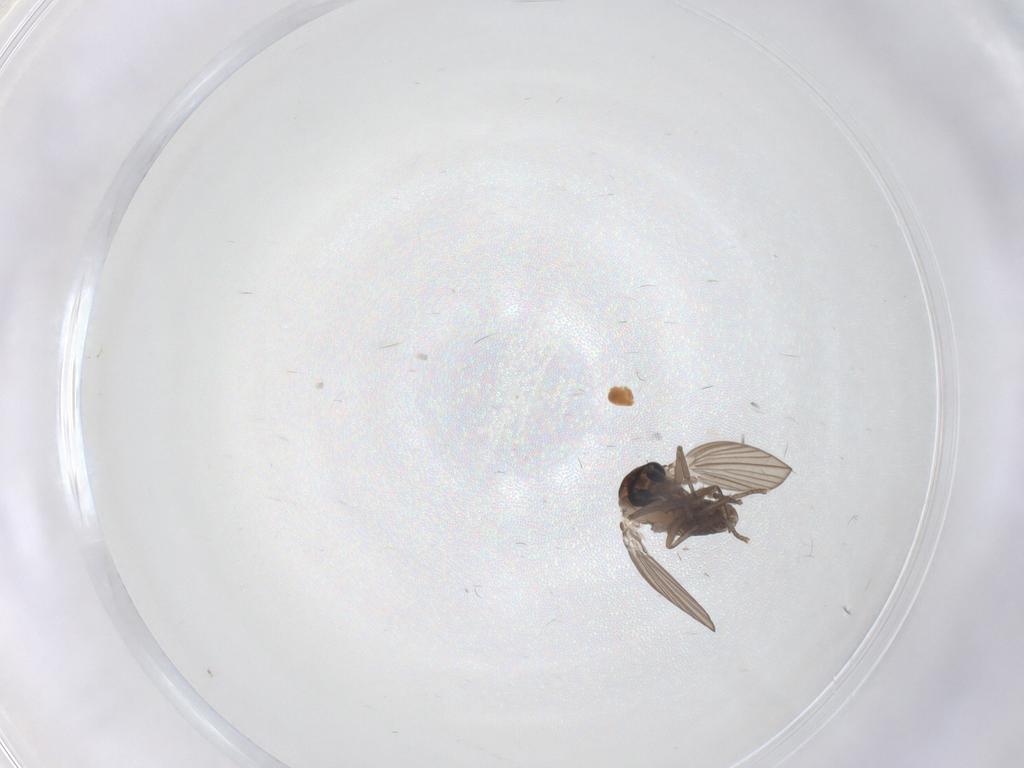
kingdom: Animalia
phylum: Arthropoda
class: Insecta
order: Diptera
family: Psychodidae
